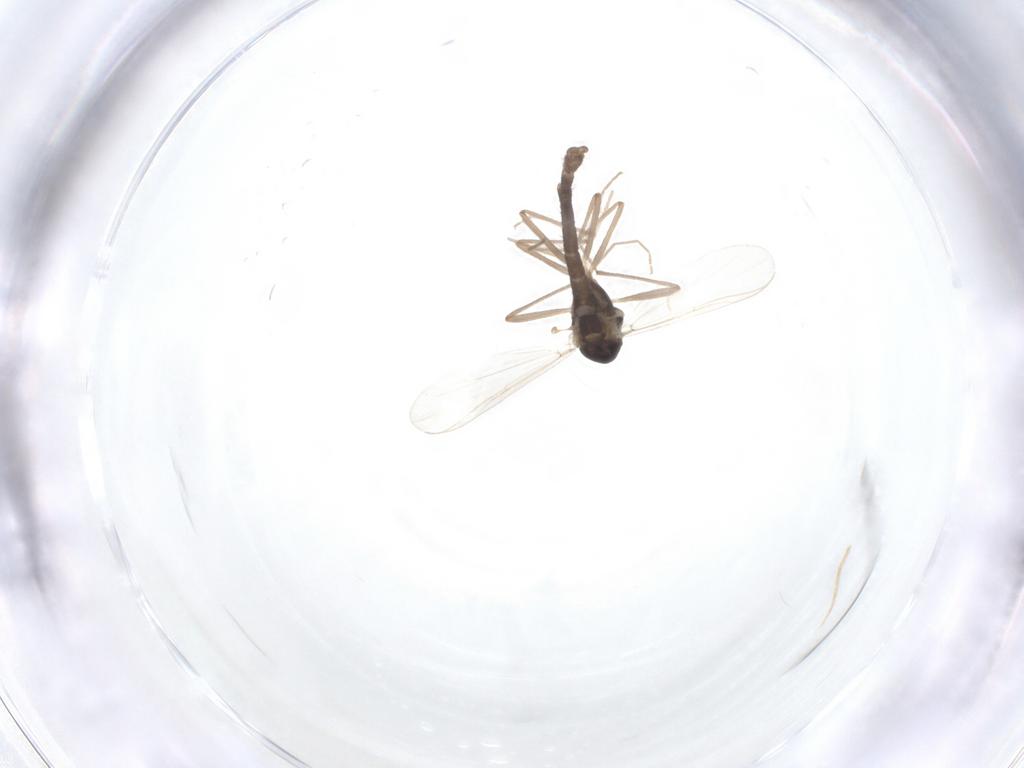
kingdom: Animalia
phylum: Arthropoda
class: Insecta
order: Diptera
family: Chironomidae
